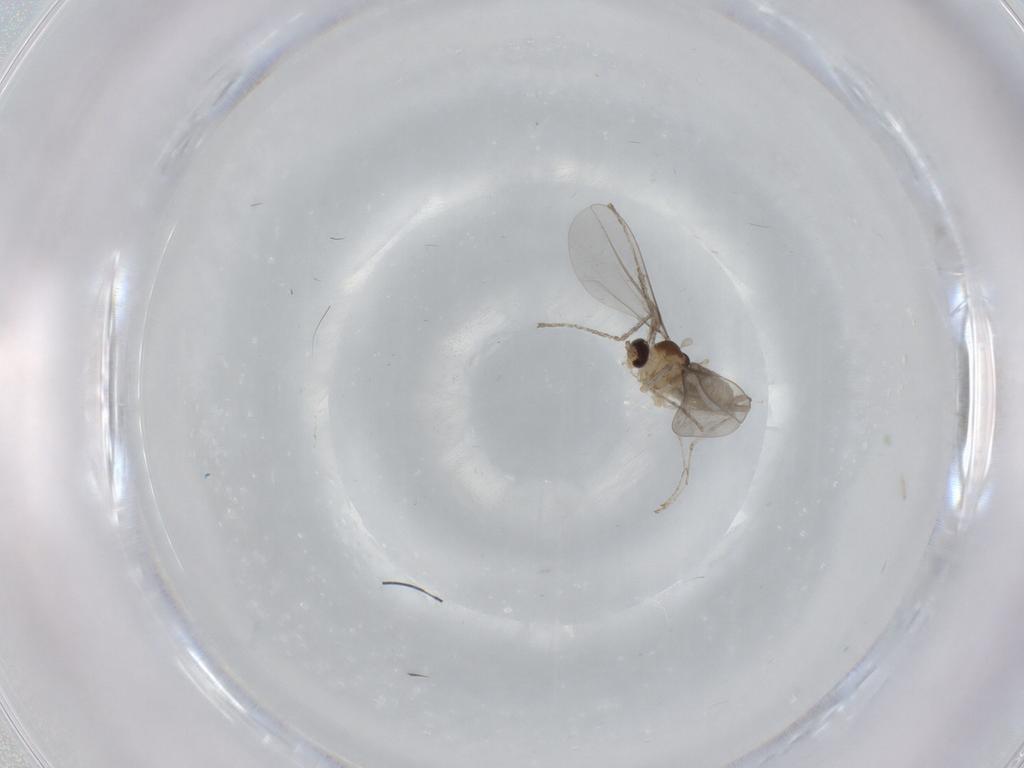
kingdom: Animalia
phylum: Arthropoda
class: Insecta
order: Diptera
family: Cecidomyiidae
